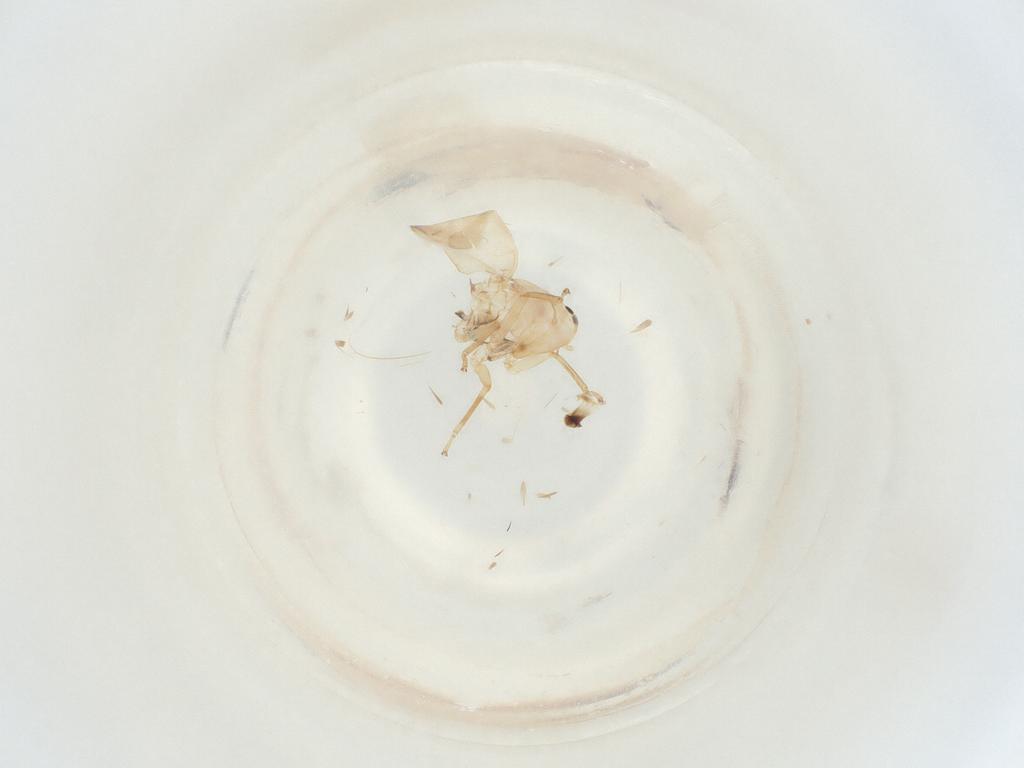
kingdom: Animalia
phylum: Arthropoda
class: Insecta
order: Hemiptera
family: Cicadellidae
